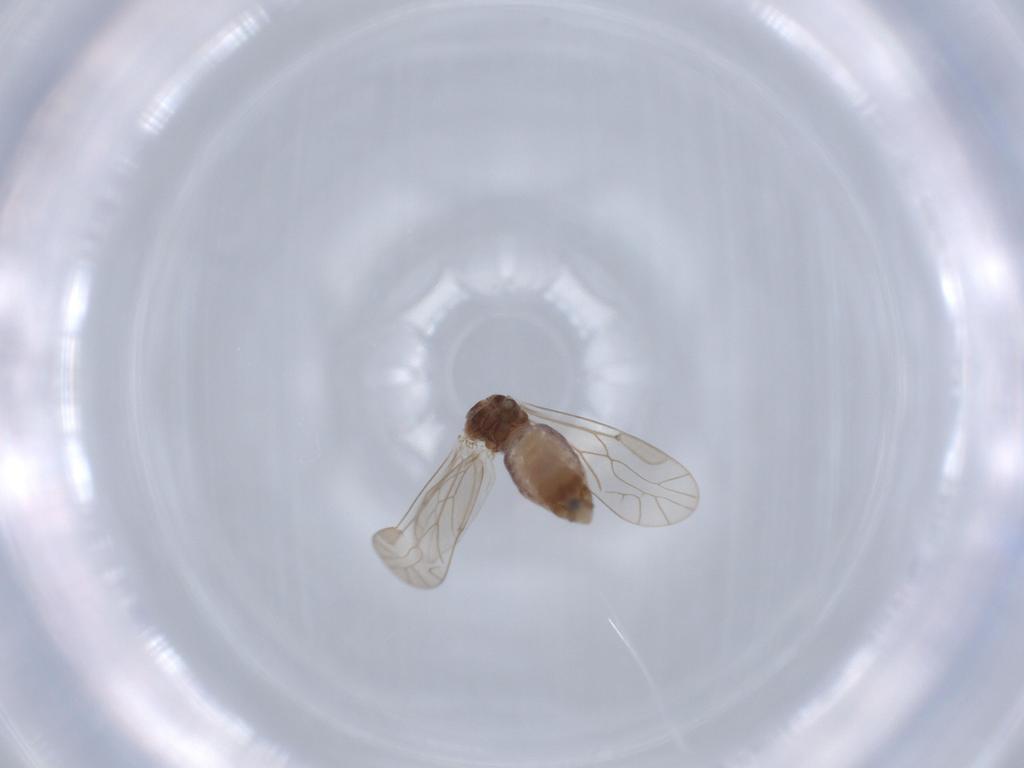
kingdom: Animalia
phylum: Arthropoda
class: Insecta
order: Psocodea
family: Lachesillidae
